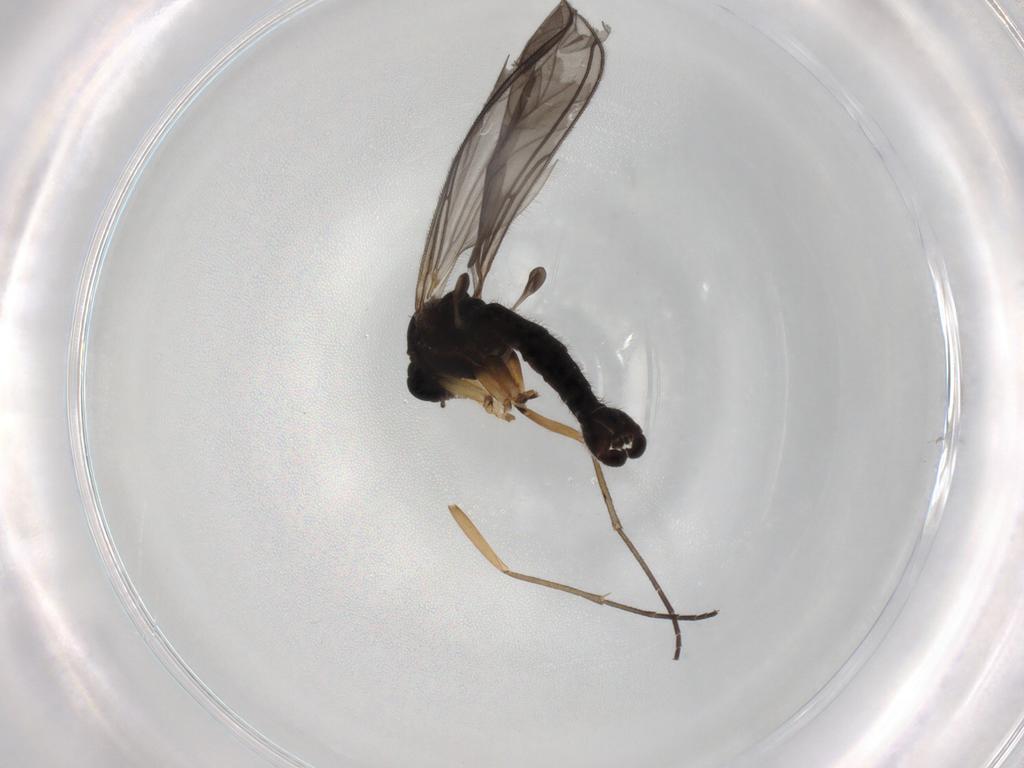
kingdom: Animalia
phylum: Arthropoda
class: Insecta
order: Diptera
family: Sciaridae
